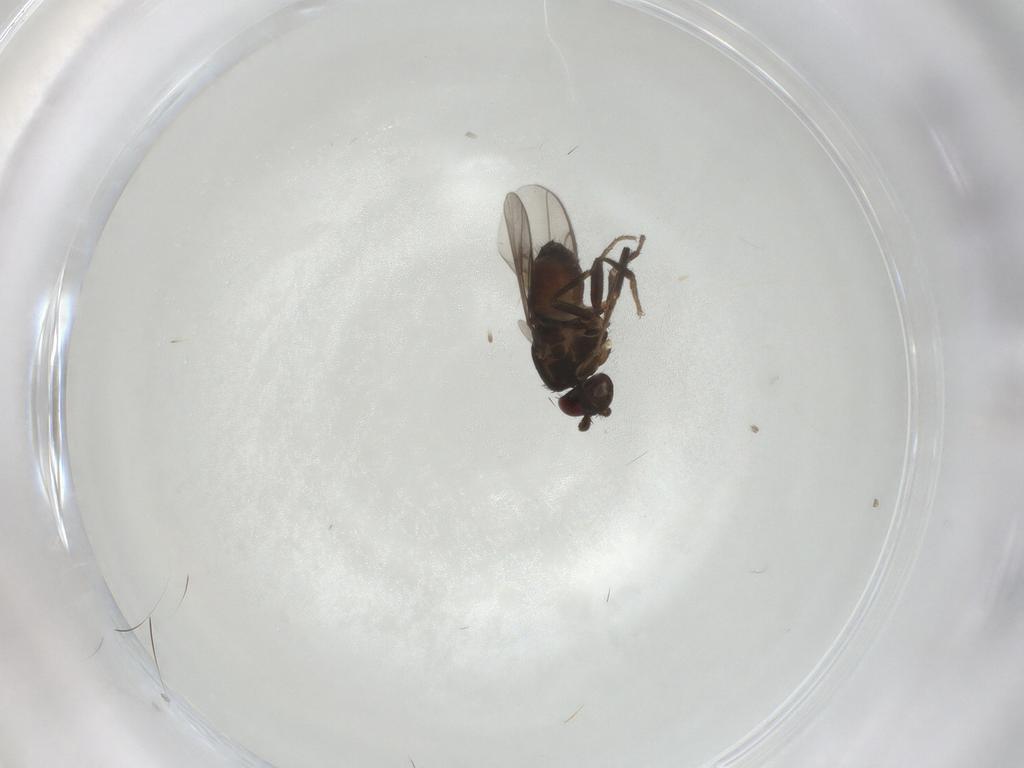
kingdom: Animalia
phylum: Arthropoda
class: Insecta
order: Diptera
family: Sphaeroceridae
